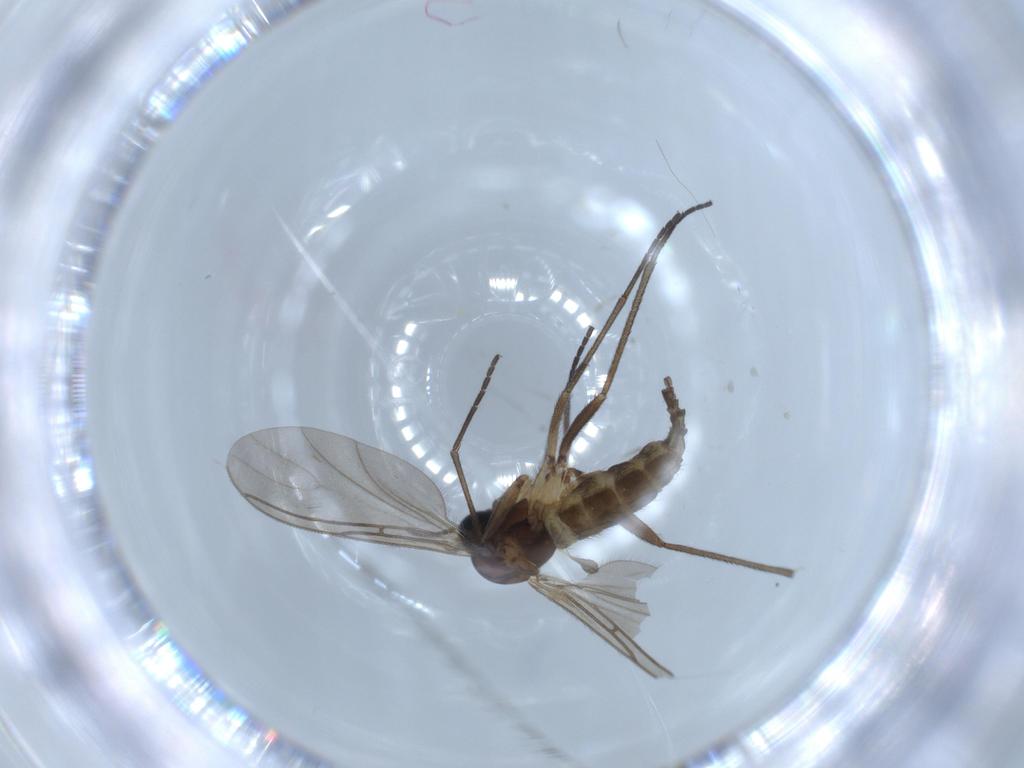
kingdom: Animalia
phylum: Arthropoda
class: Insecta
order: Diptera
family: Sciaridae
